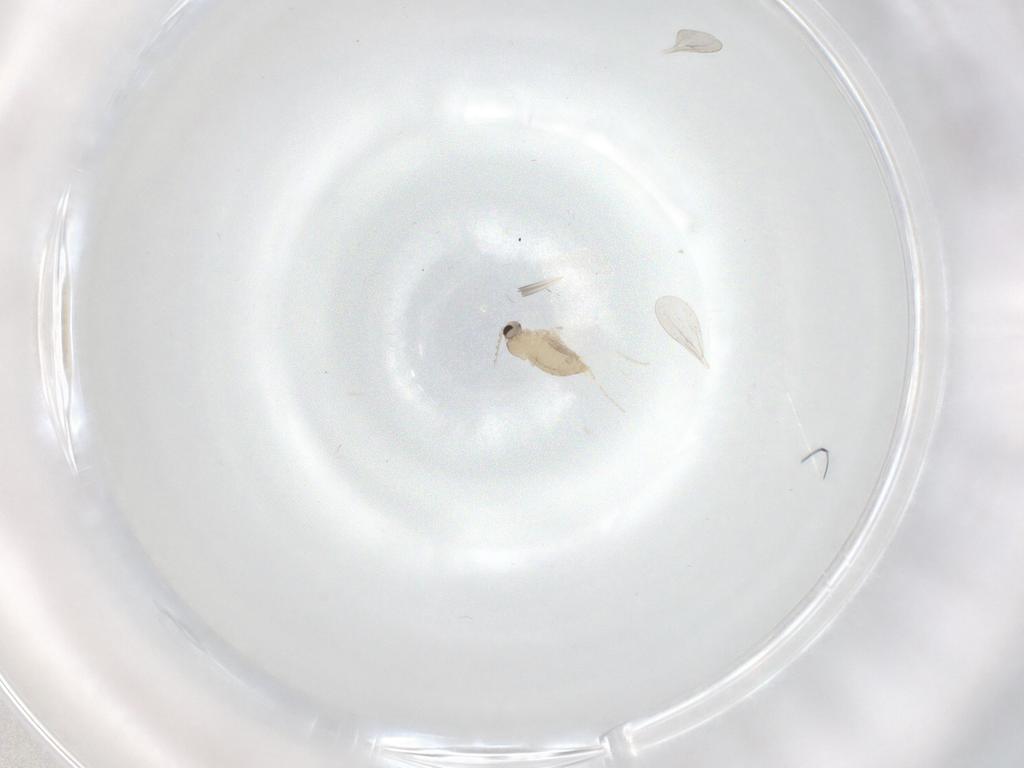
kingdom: Animalia
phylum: Arthropoda
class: Insecta
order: Diptera
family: Cecidomyiidae
